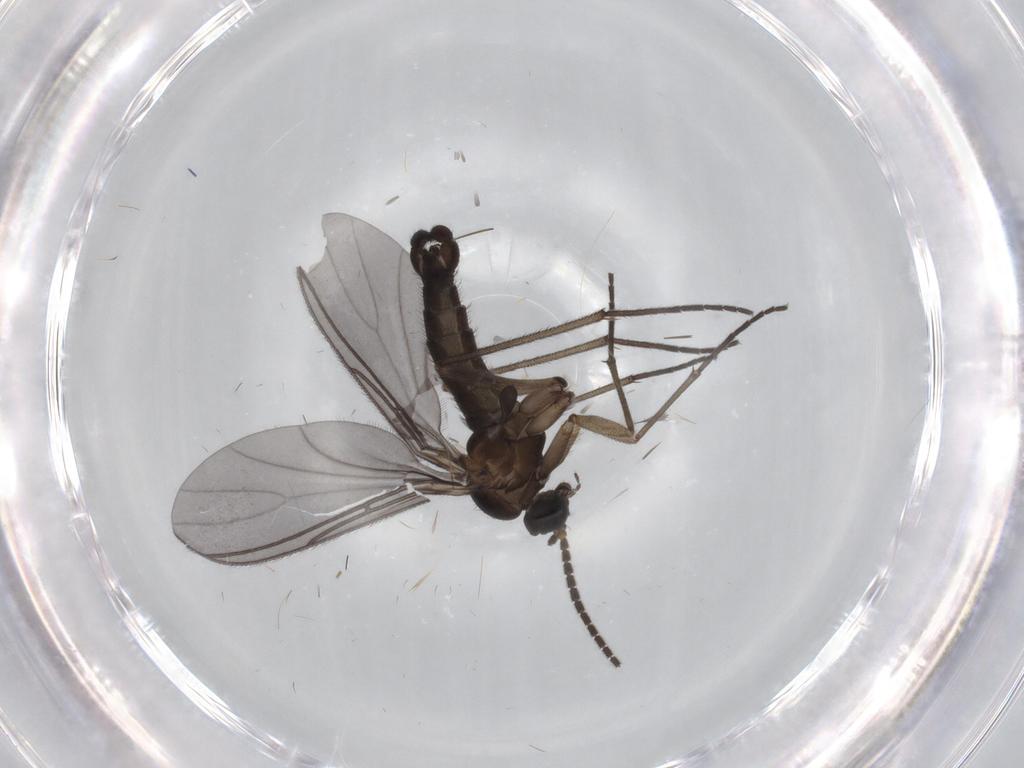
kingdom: Animalia
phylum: Arthropoda
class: Insecta
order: Diptera
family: Sciaridae
